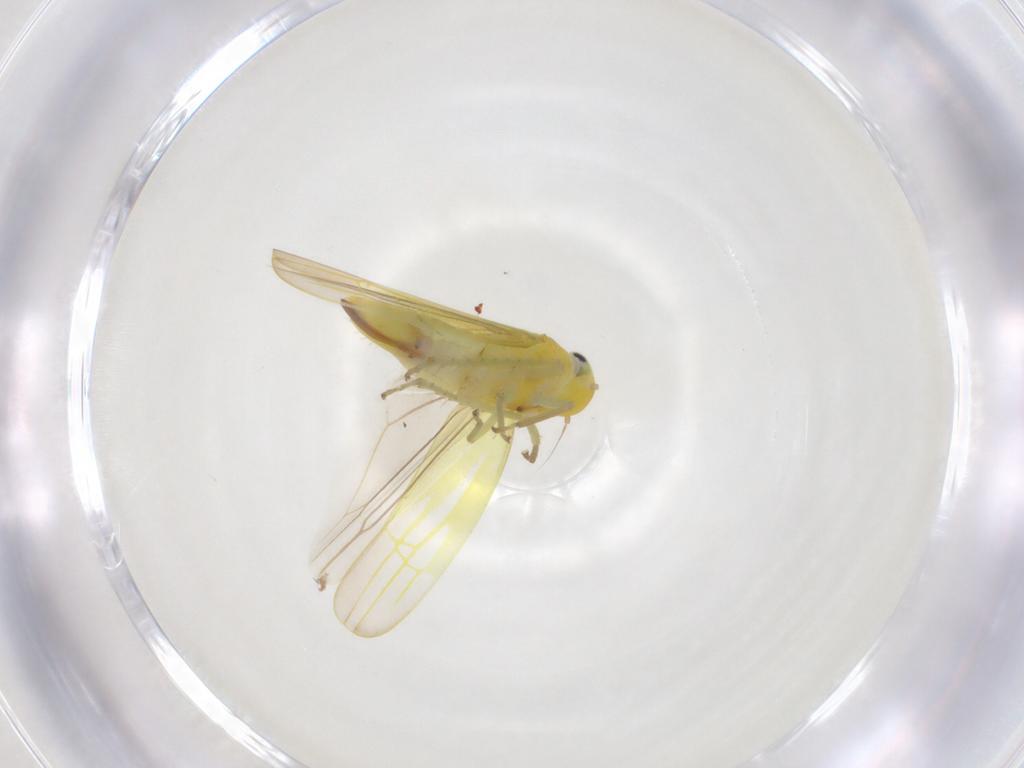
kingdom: Animalia
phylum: Arthropoda
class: Insecta
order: Hemiptera
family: Cicadellidae
